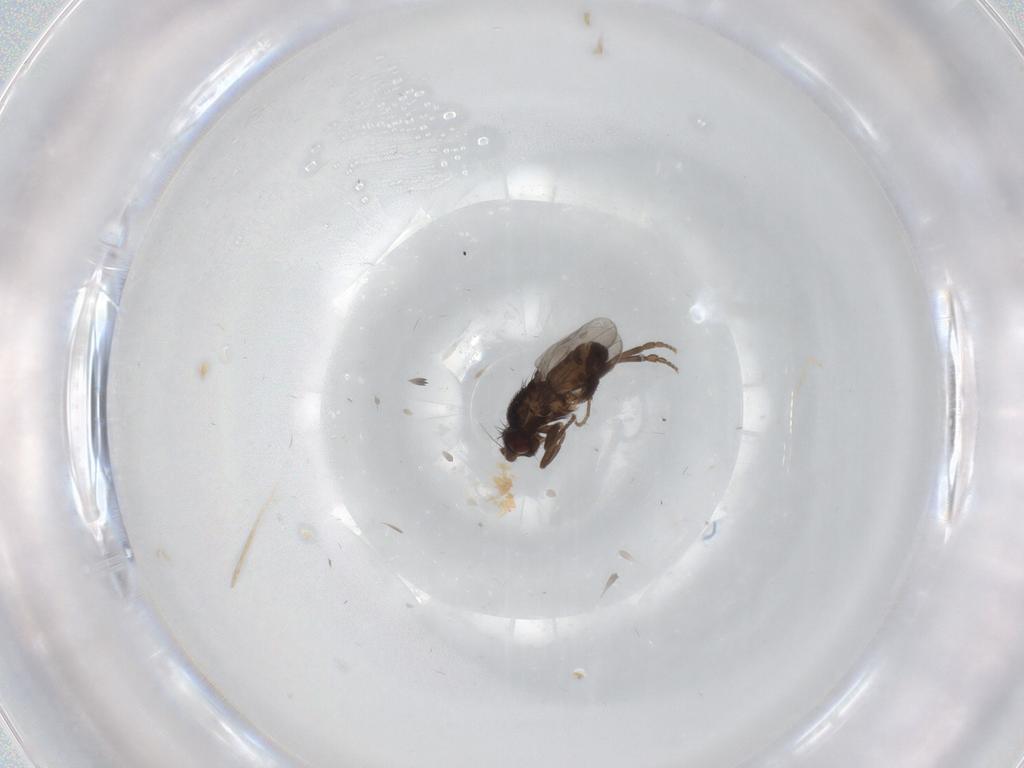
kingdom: Animalia
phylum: Arthropoda
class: Insecta
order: Diptera
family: Sphaeroceridae
